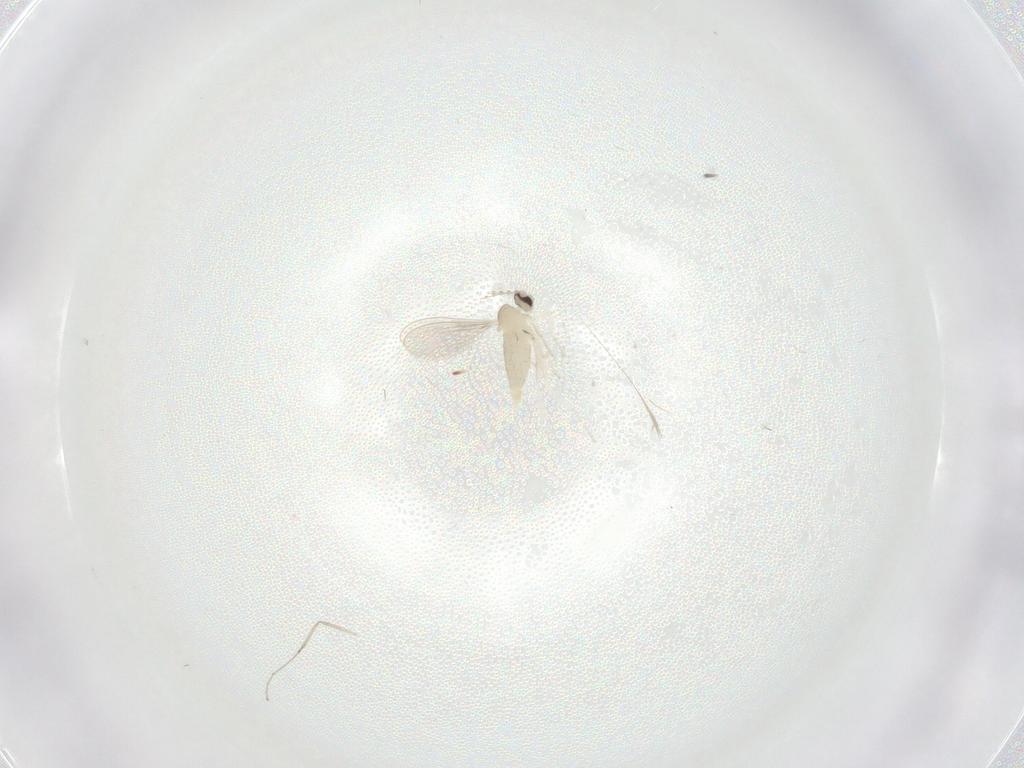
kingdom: Animalia
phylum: Arthropoda
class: Insecta
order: Diptera
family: Cecidomyiidae
